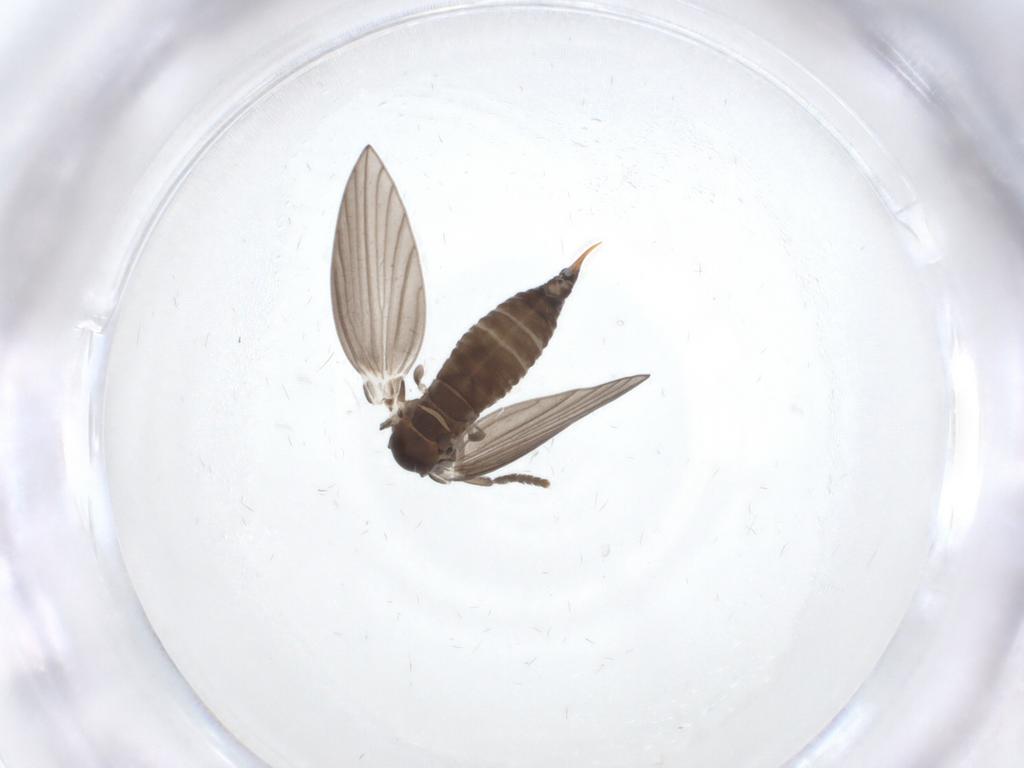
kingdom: Animalia
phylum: Arthropoda
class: Insecta
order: Diptera
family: Psychodidae
